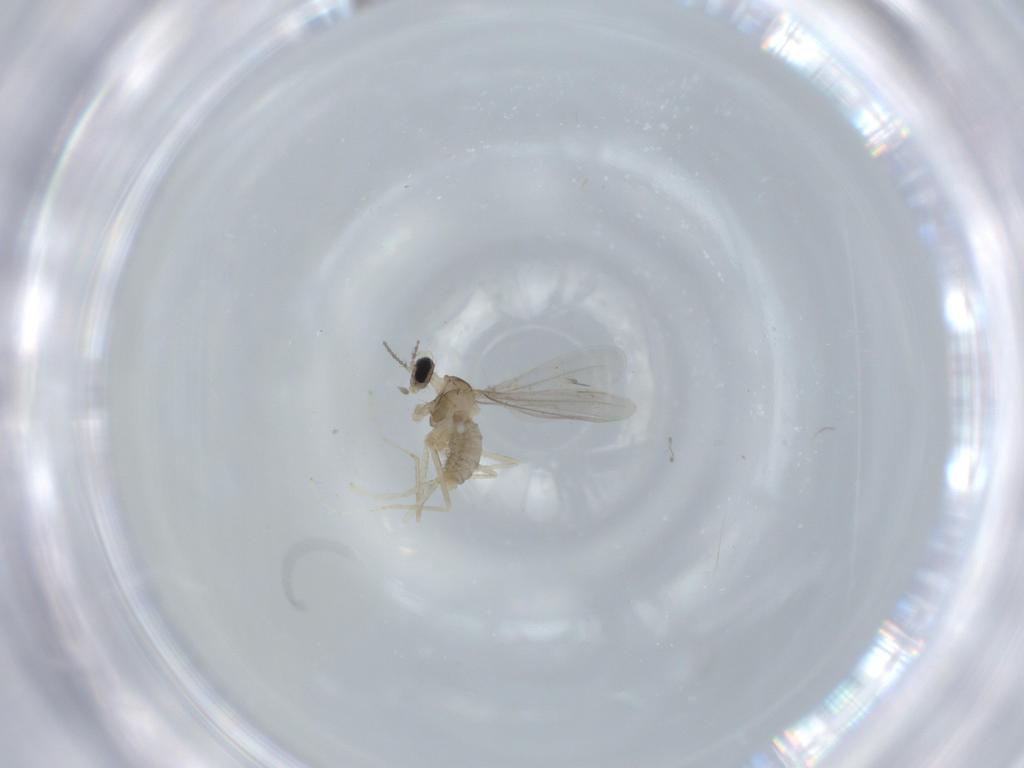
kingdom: Animalia
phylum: Arthropoda
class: Insecta
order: Diptera
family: Cecidomyiidae
